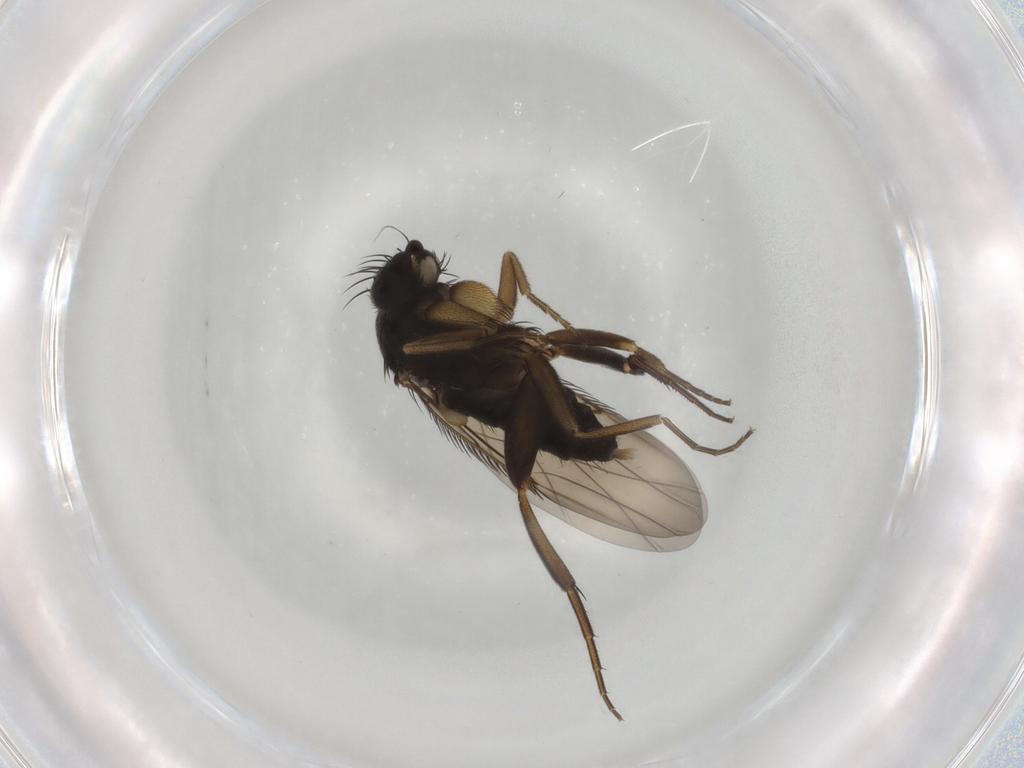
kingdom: Animalia
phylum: Arthropoda
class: Insecta
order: Diptera
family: Phoridae
